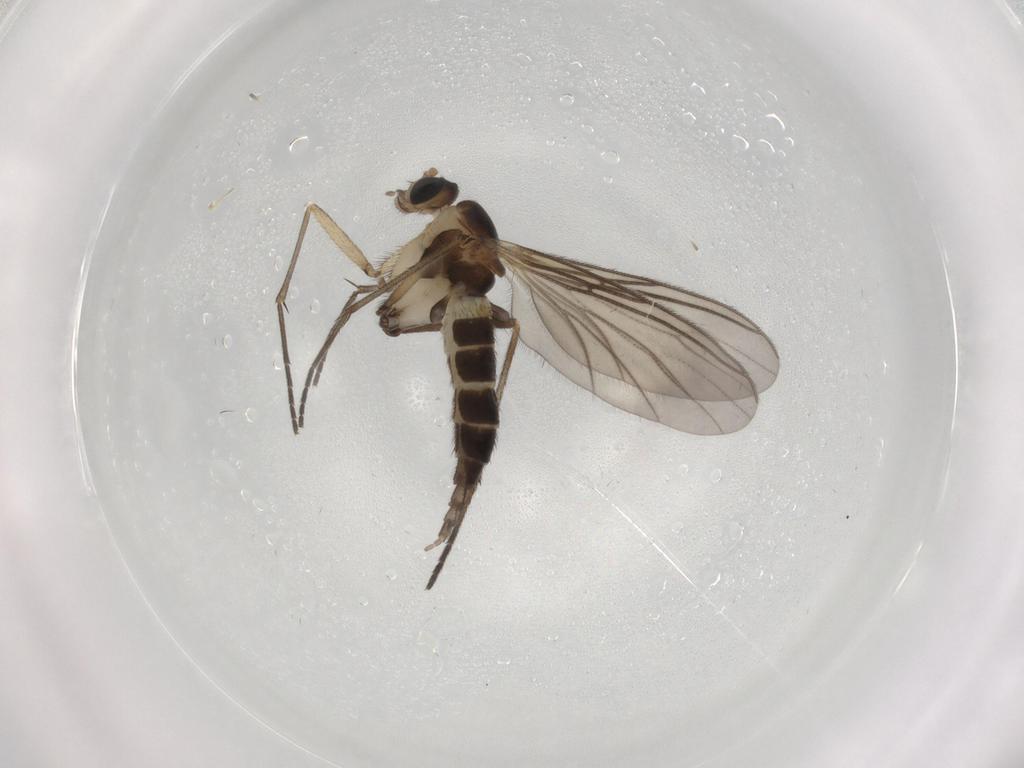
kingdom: Animalia
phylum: Arthropoda
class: Insecta
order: Diptera
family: Sciaridae
